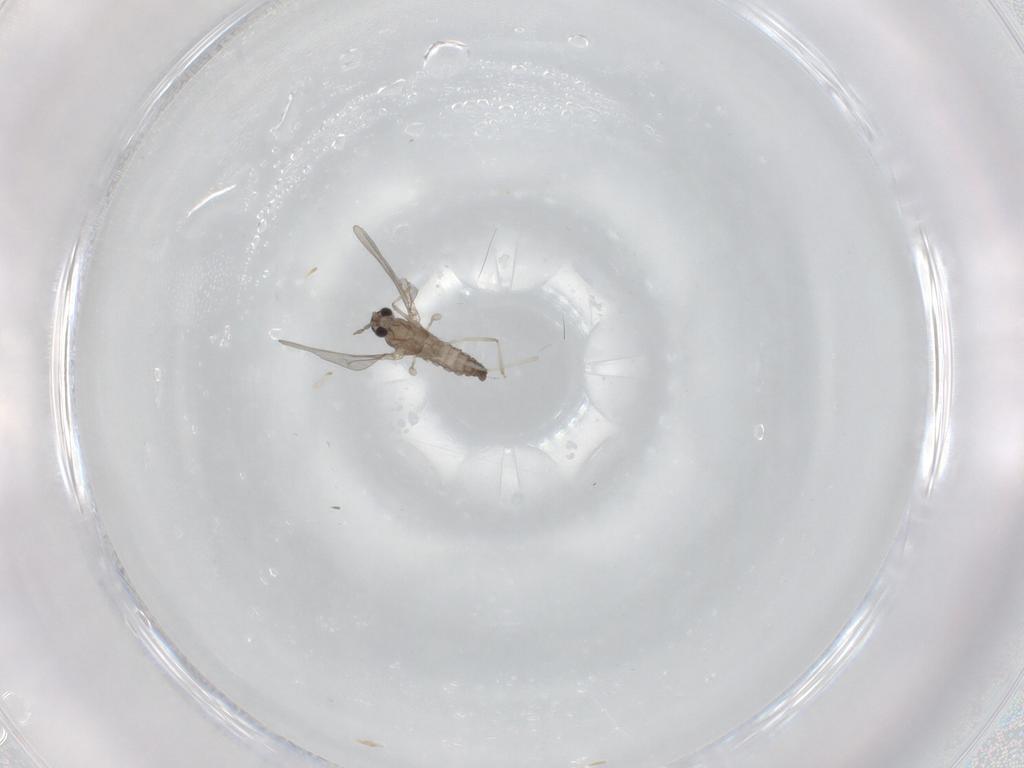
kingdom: Animalia
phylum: Arthropoda
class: Insecta
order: Diptera
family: Cecidomyiidae
